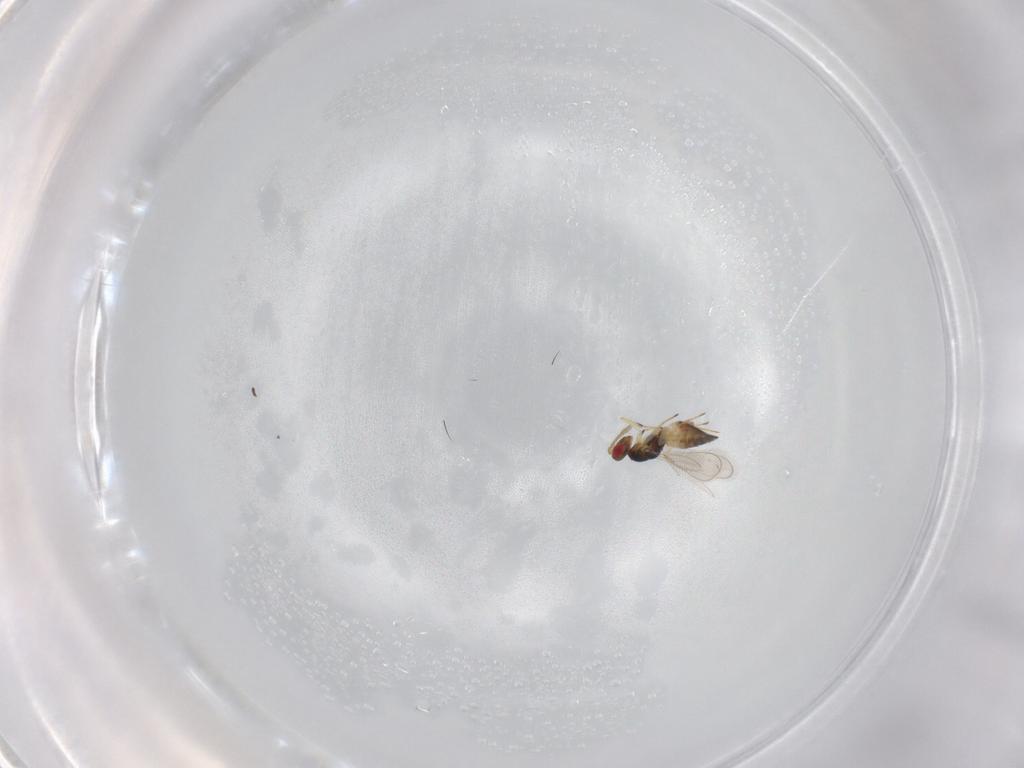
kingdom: Animalia
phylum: Arthropoda
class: Insecta
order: Hymenoptera
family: Eulophidae
